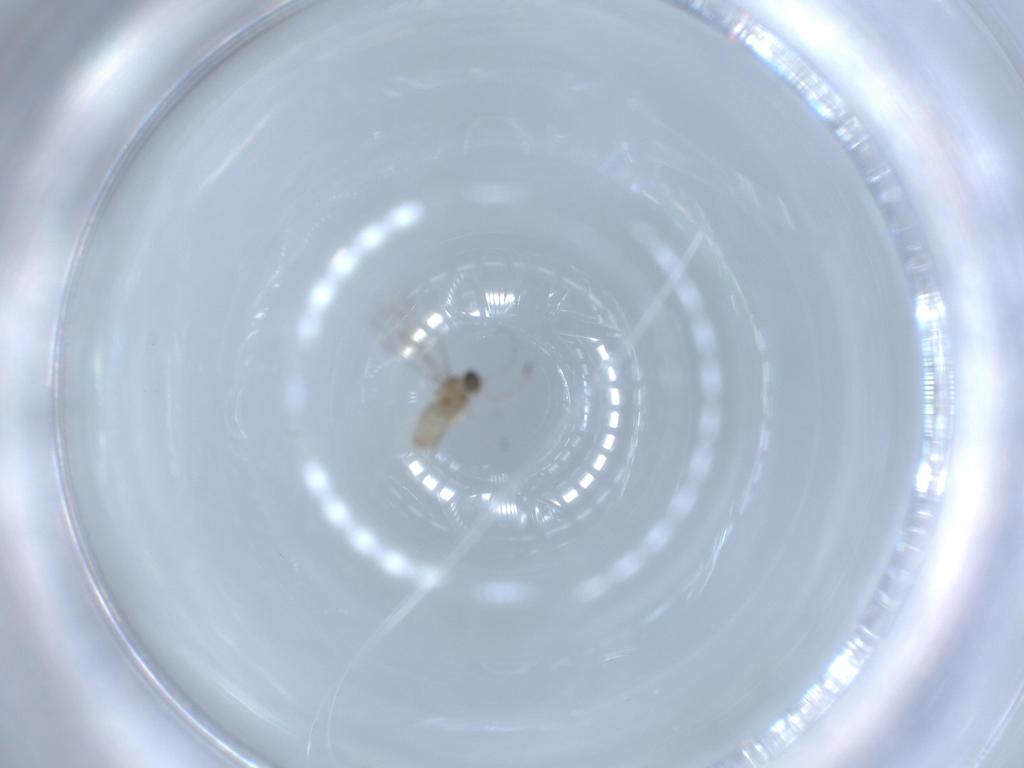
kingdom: Animalia
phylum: Arthropoda
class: Insecta
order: Diptera
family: Cecidomyiidae
